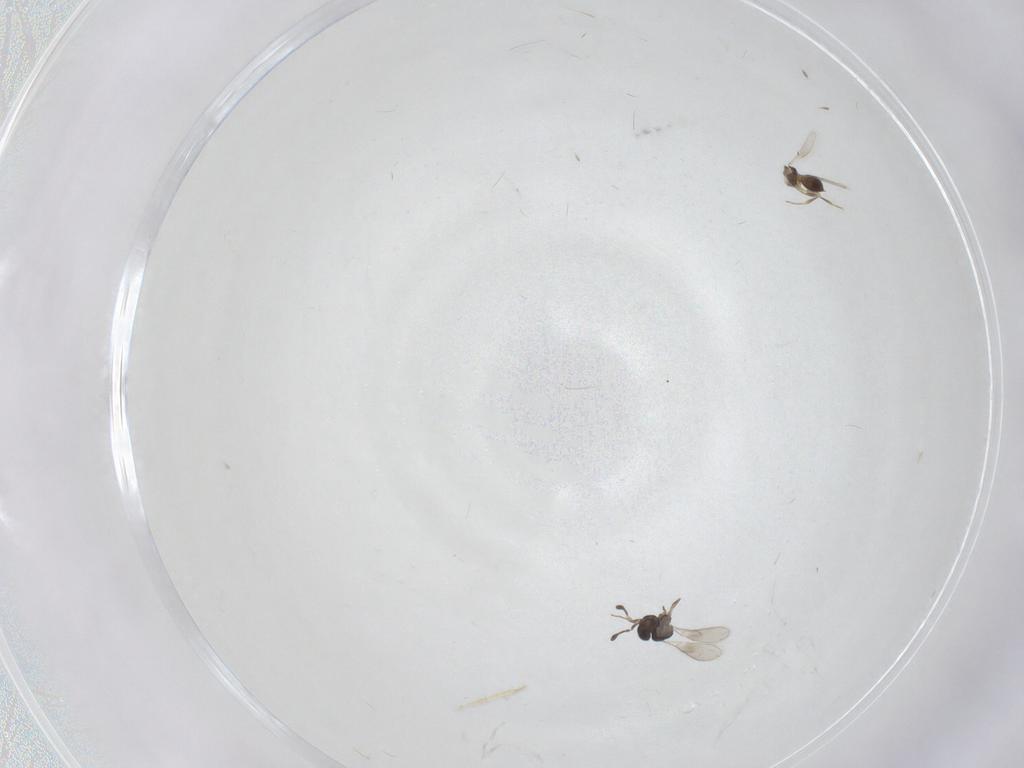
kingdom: Animalia
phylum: Arthropoda
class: Insecta
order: Hymenoptera
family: Scelionidae
